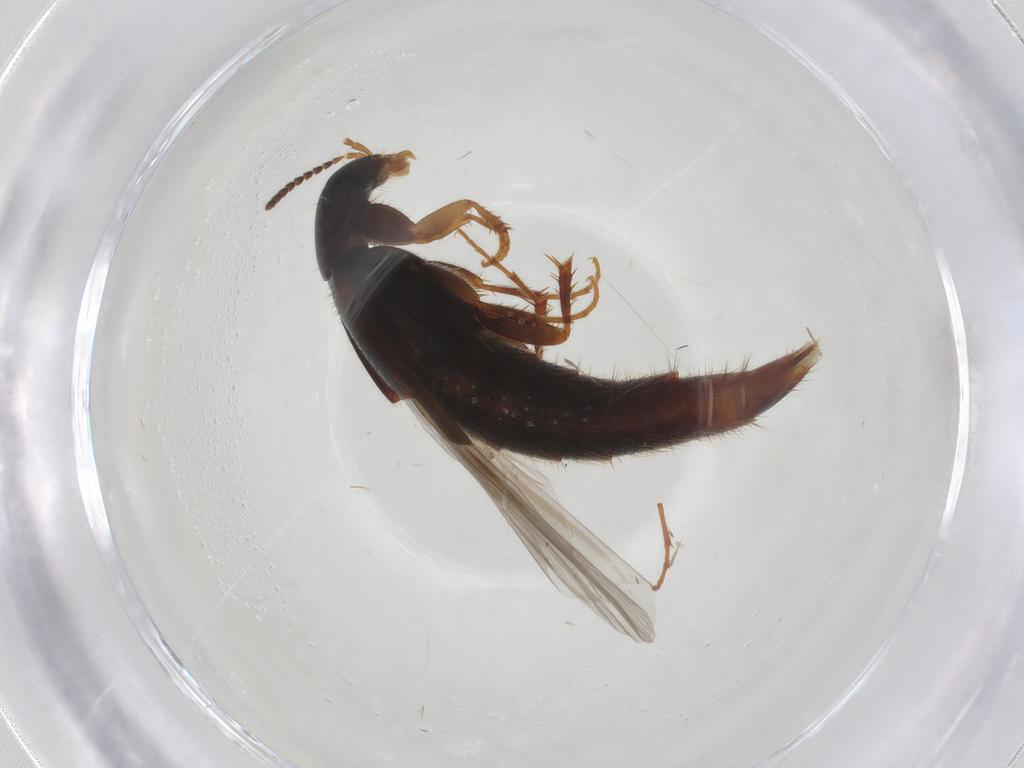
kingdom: Animalia
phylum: Arthropoda
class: Insecta
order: Coleoptera
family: Staphylinidae
